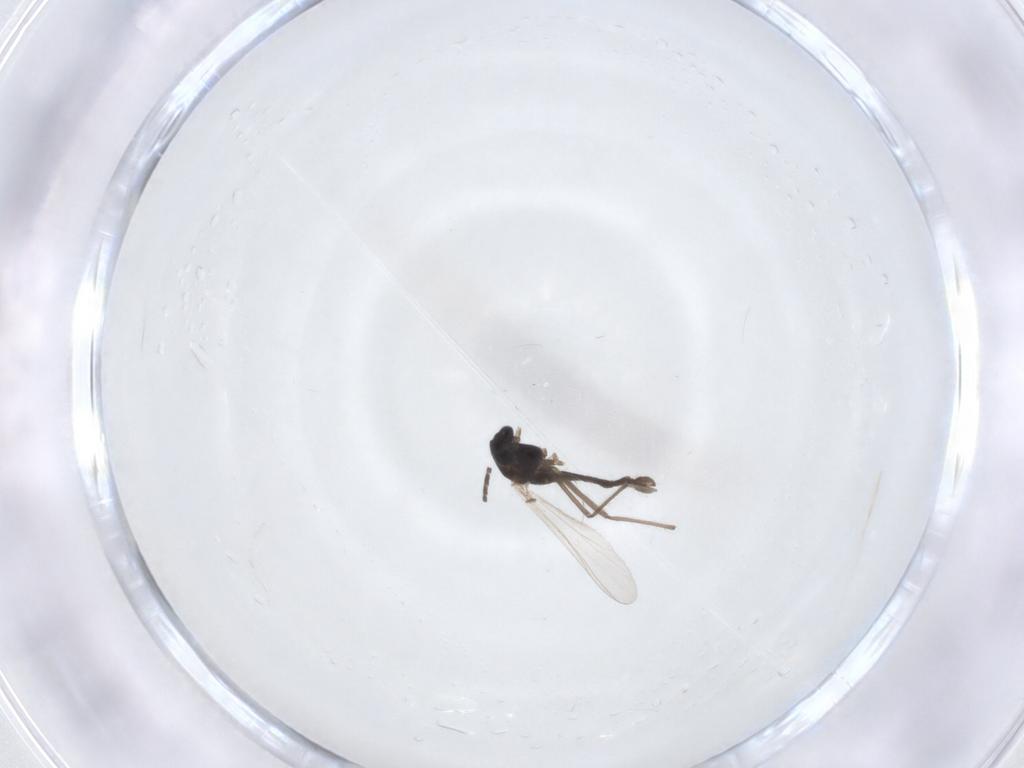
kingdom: Animalia
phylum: Arthropoda
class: Insecta
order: Diptera
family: Chironomidae
